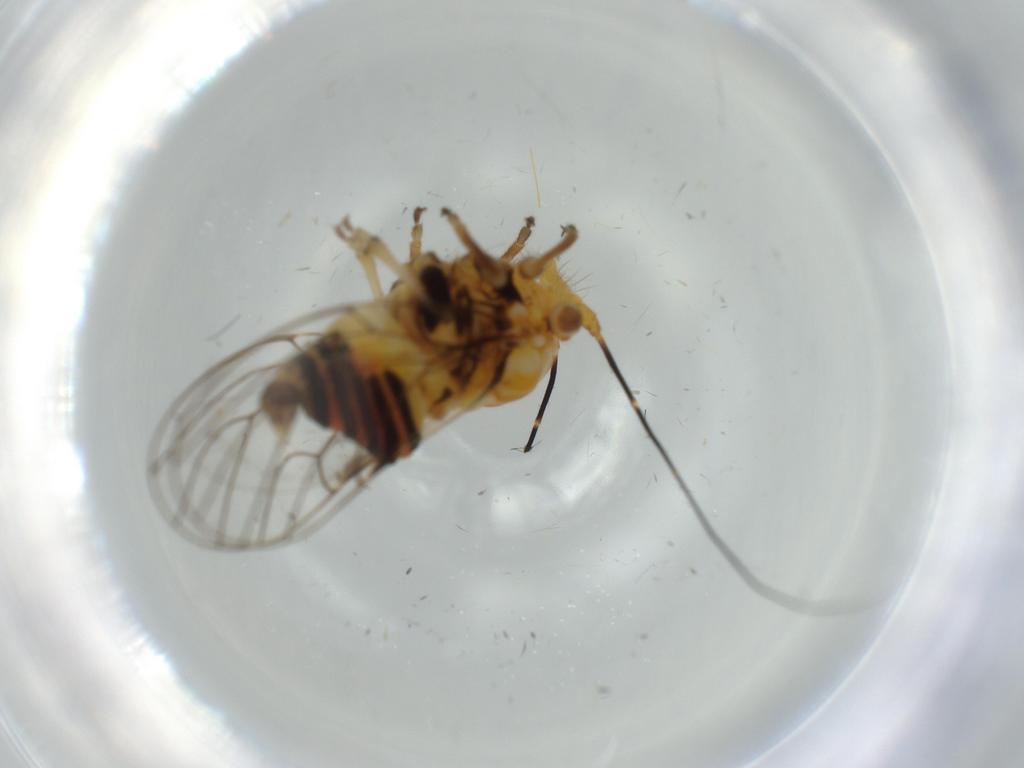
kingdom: Animalia
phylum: Arthropoda
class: Insecta
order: Hemiptera
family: Psyllidae
